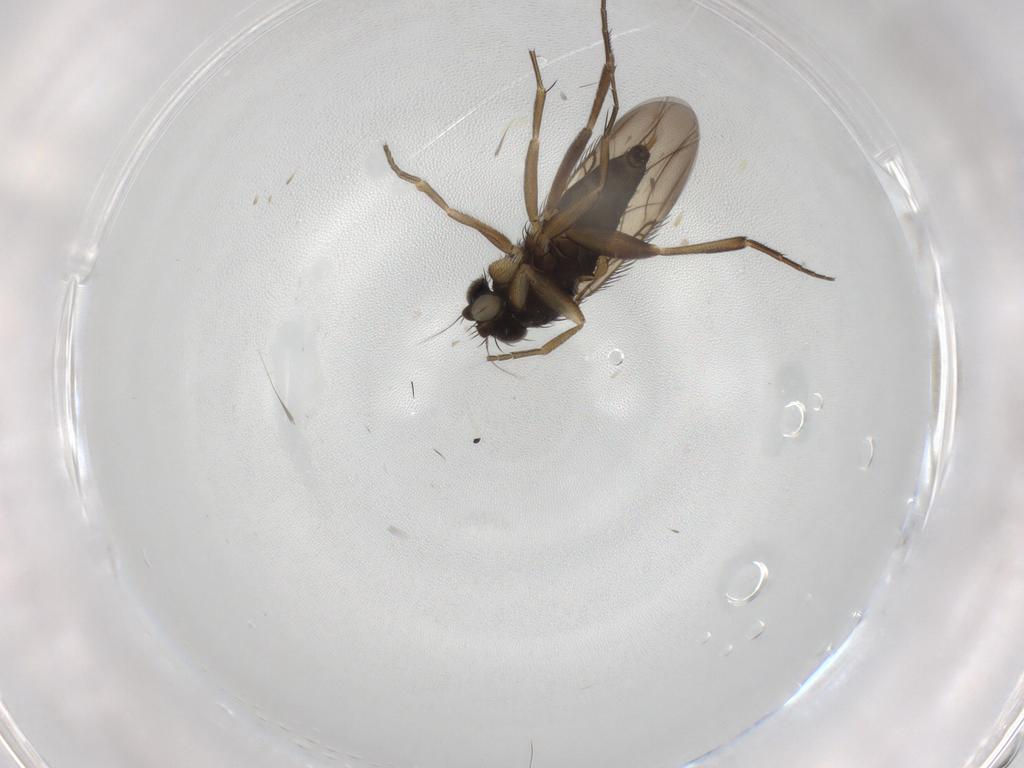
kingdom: Animalia
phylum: Arthropoda
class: Insecta
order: Diptera
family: Phoridae
